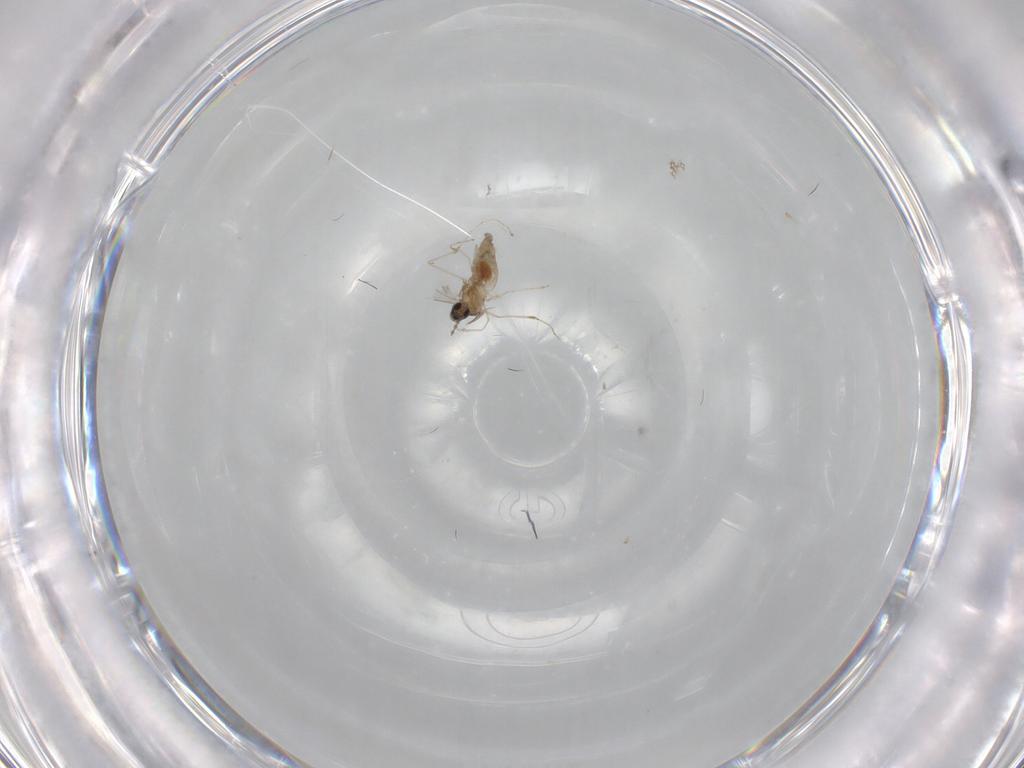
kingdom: Animalia
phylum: Arthropoda
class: Insecta
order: Diptera
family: Cecidomyiidae
